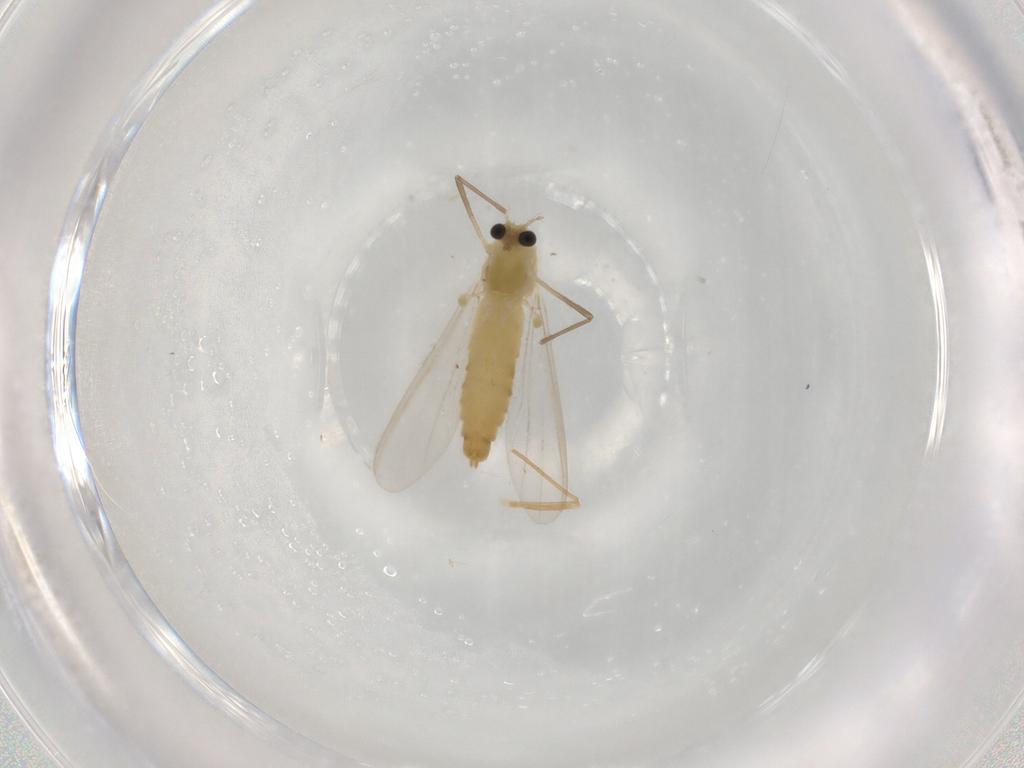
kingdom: Animalia
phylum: Arthropoda
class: Insecta
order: Diptera
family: Chironomidae
